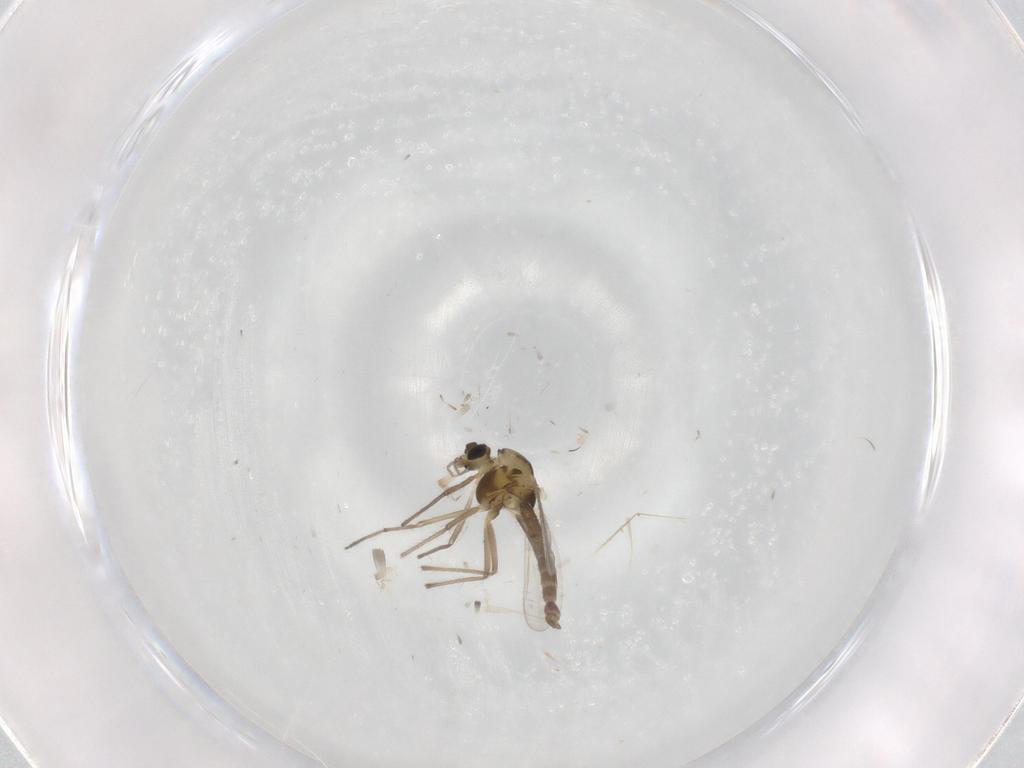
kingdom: Animalia
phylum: Arthropoda
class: Insecta
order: Diptera
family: Chironomidae
